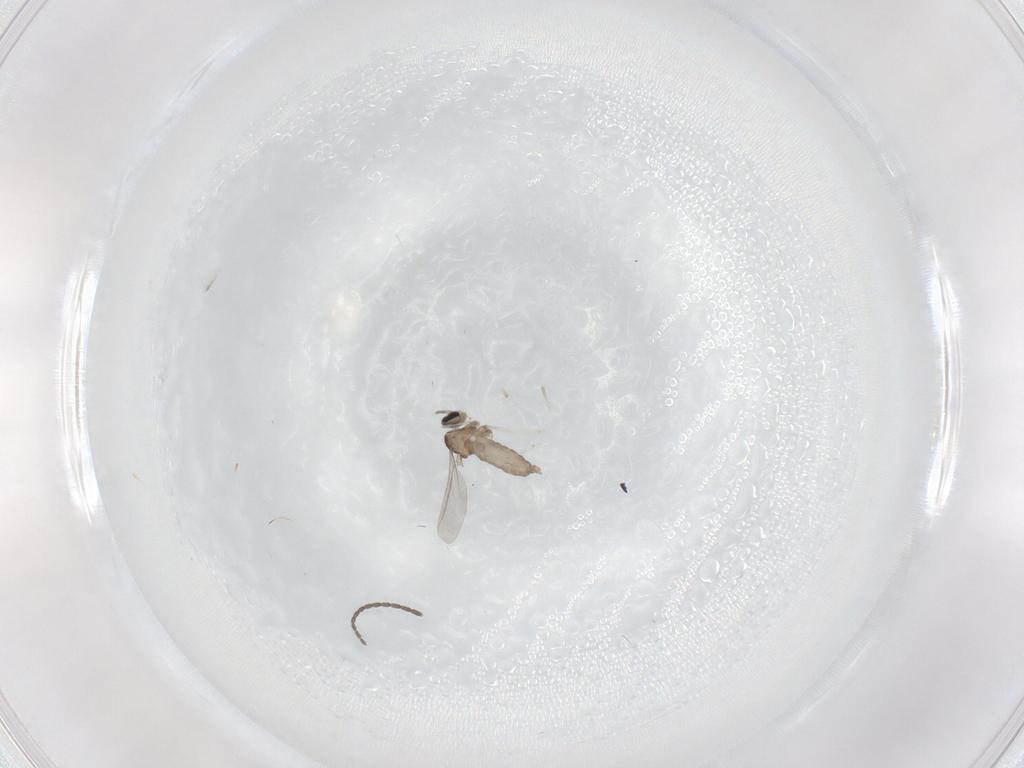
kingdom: Animalia
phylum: Arthropoda
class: Insecta
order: Diptera
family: Cecidomyiidae
